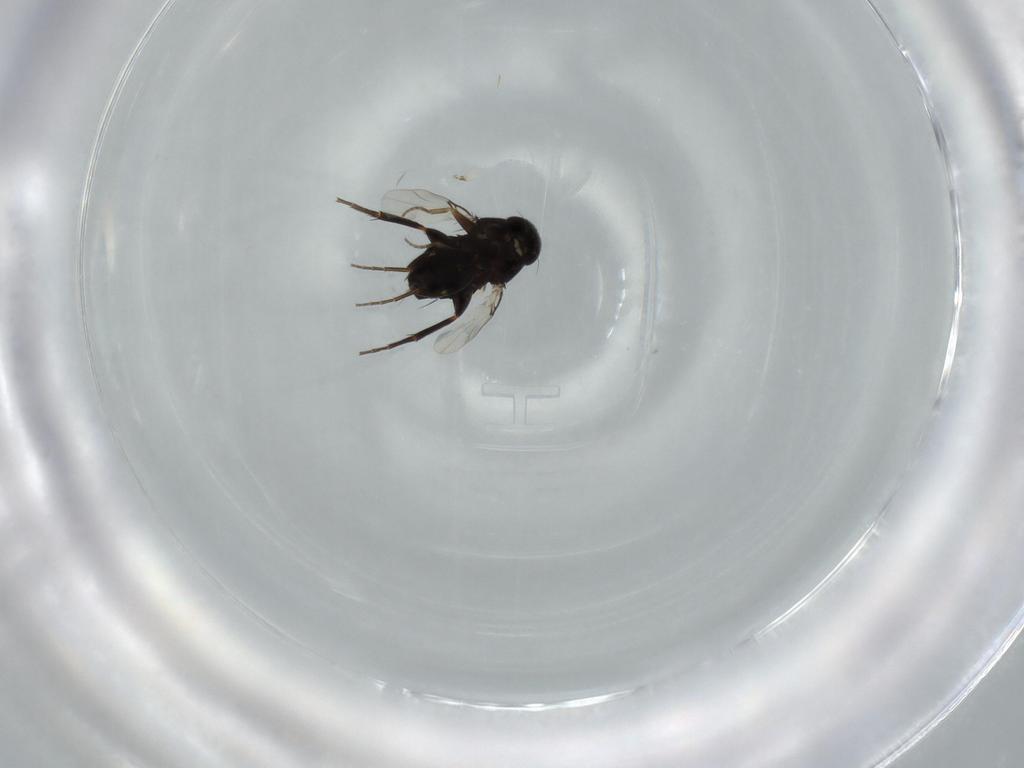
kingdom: Animalia
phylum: Arthropoda
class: Insecta
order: Diptera
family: Phoridae
